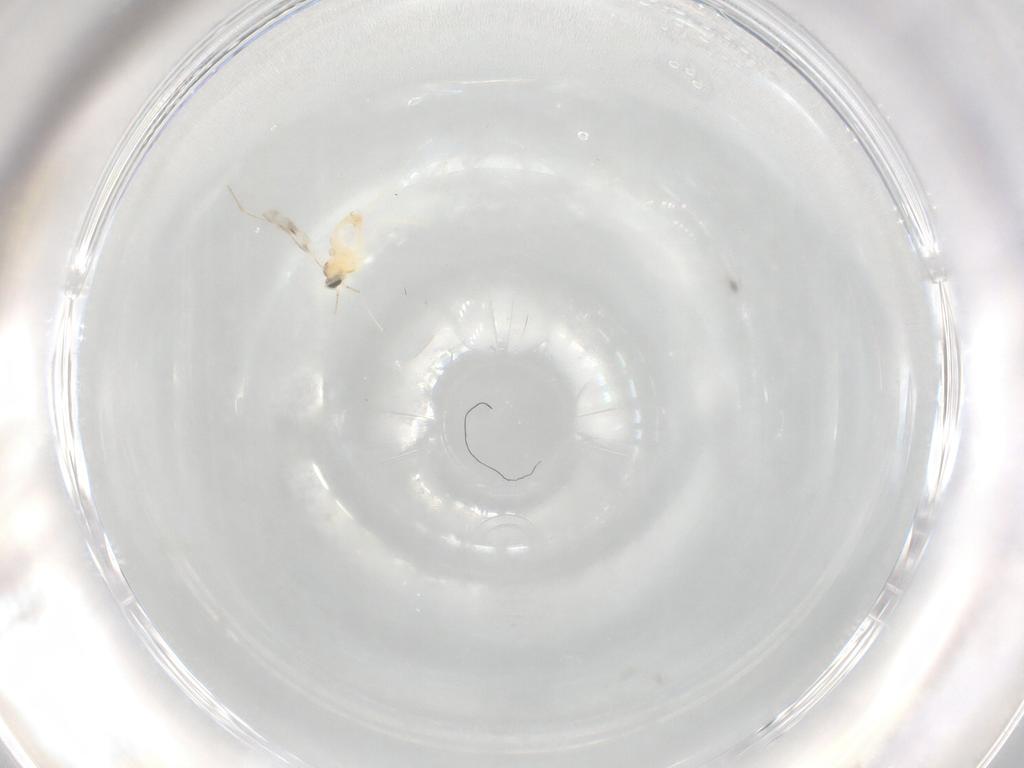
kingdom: Animalia
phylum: Arthropoda
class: Insecta
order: Diptera
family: Cecidomyiidae
